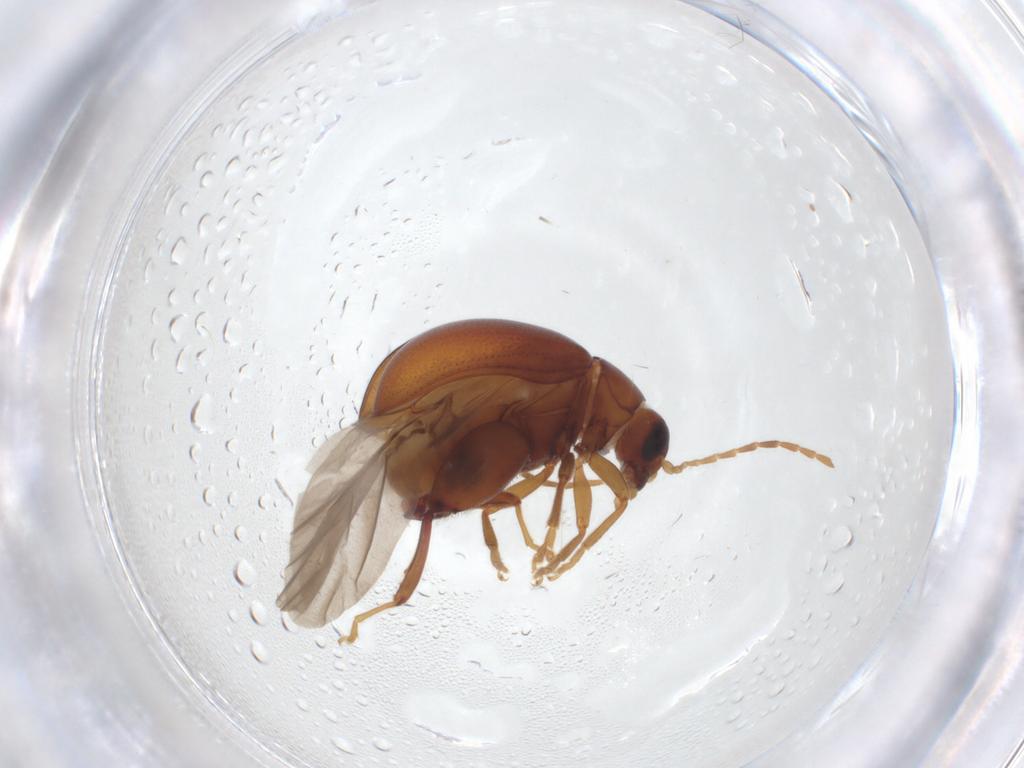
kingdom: Animalia
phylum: Arthropoda
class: Insecta
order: Coleoptera
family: Chrysomelidae
